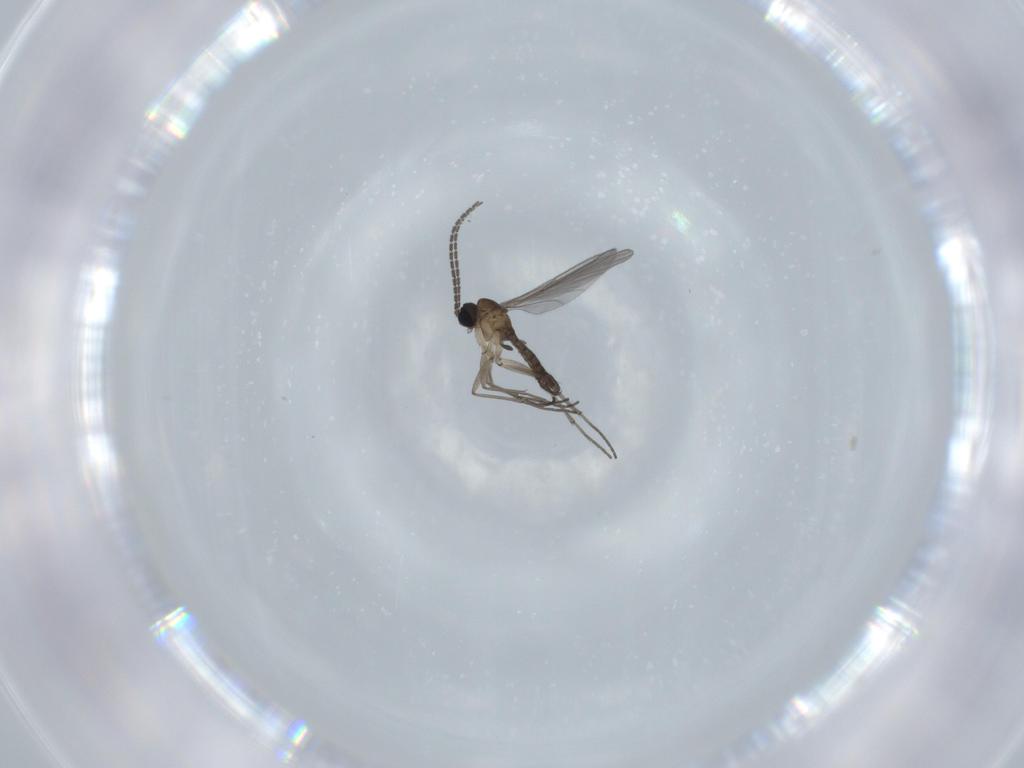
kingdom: Animalia
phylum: Arthropoda
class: Insecta
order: Diptera
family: Sciaridae
